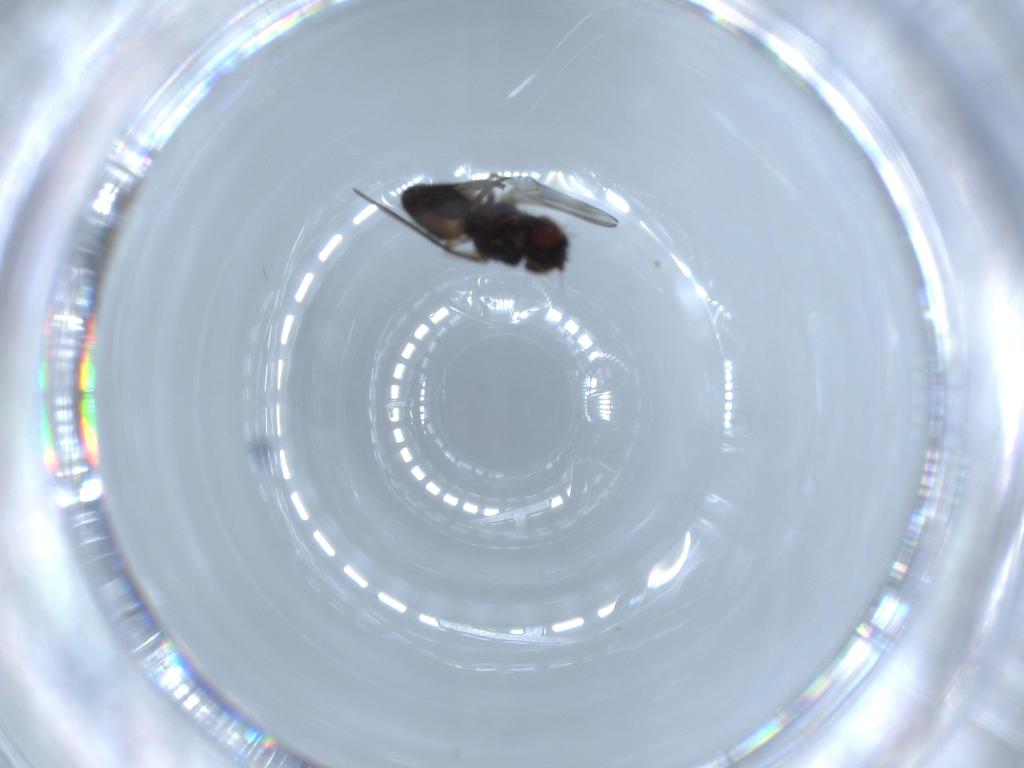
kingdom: Animalia
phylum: Arthropoda
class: Insecta
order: Diptera
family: Milichiidae
